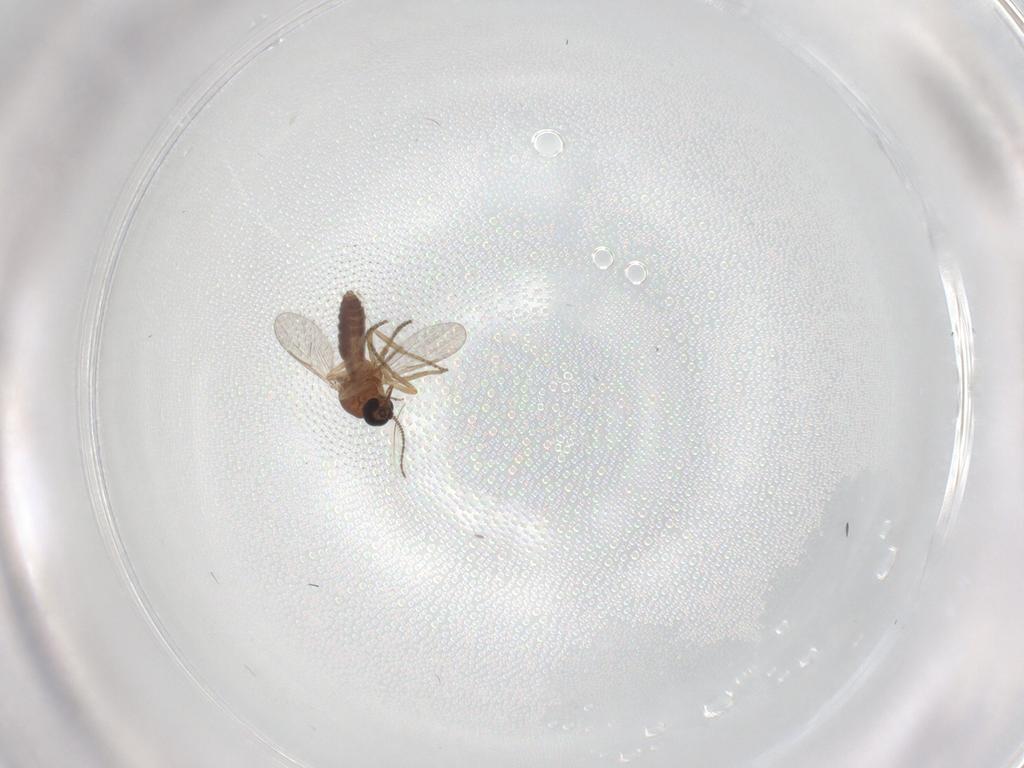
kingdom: Animalia
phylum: Arthropoda
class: Insecta
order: Diptera
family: Ceratopogonidae
